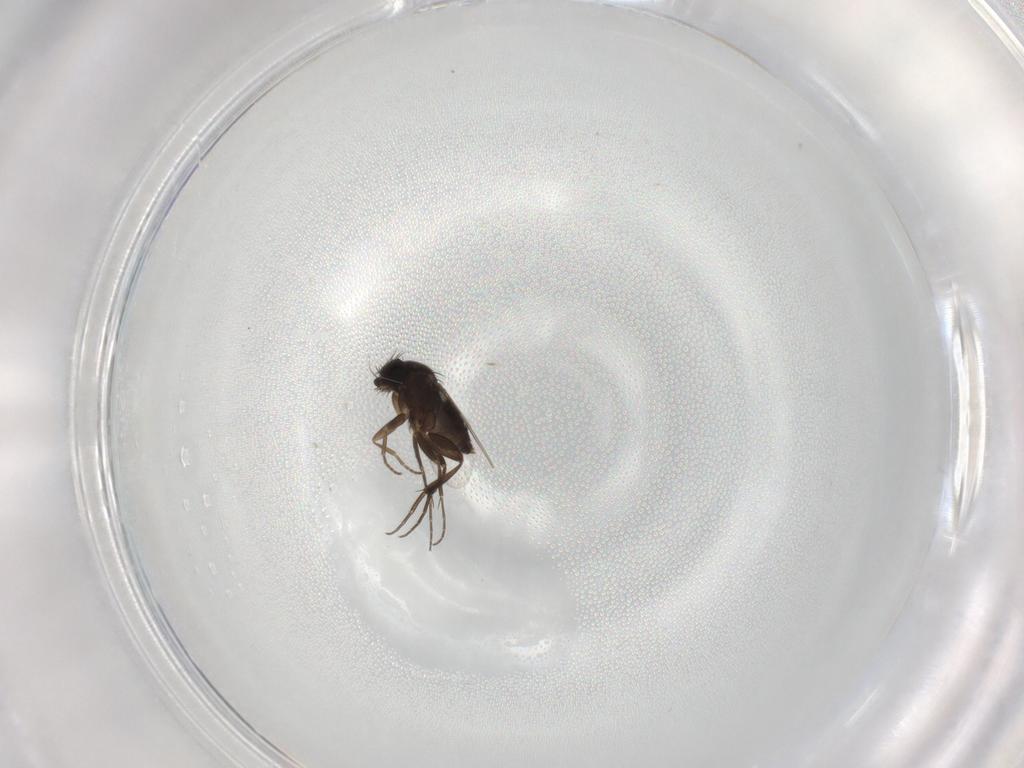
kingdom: Animalia
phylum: Arthropoda
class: Insecta
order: Diptera
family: Phoridae
